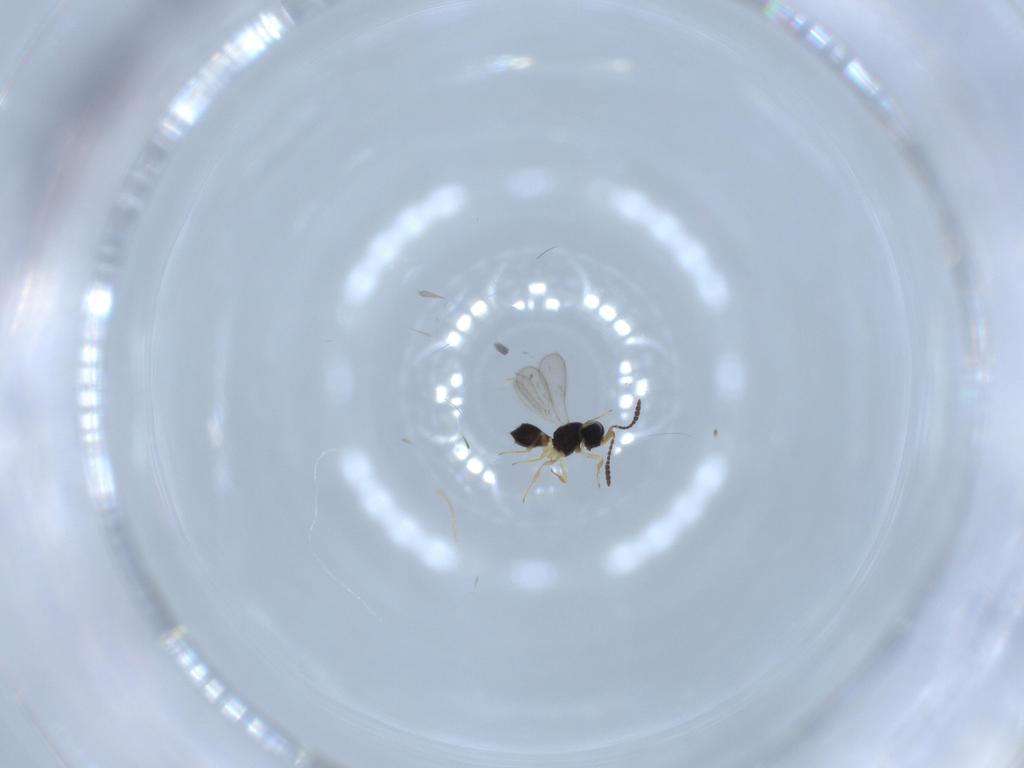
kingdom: Animalia
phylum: Arthropoda
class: Insecta
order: Hymenoptera
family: Scelionidae
